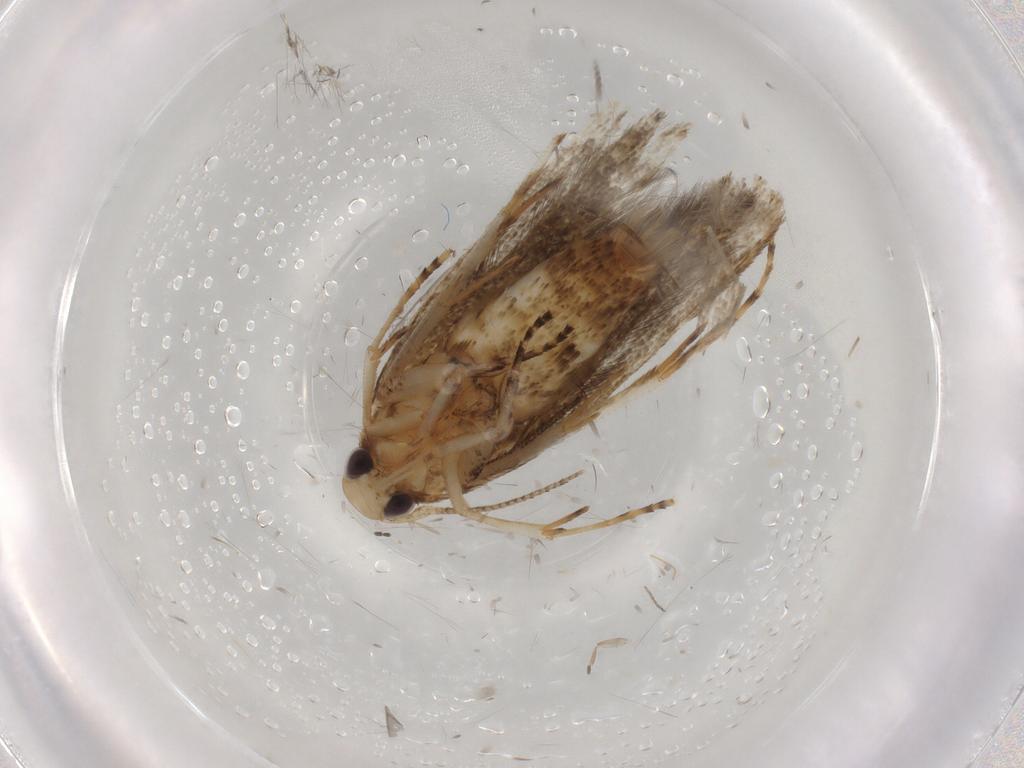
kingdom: Animalia
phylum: Arthropoda
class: Insecta
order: Lepidoptera
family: Cosmopterigidae
